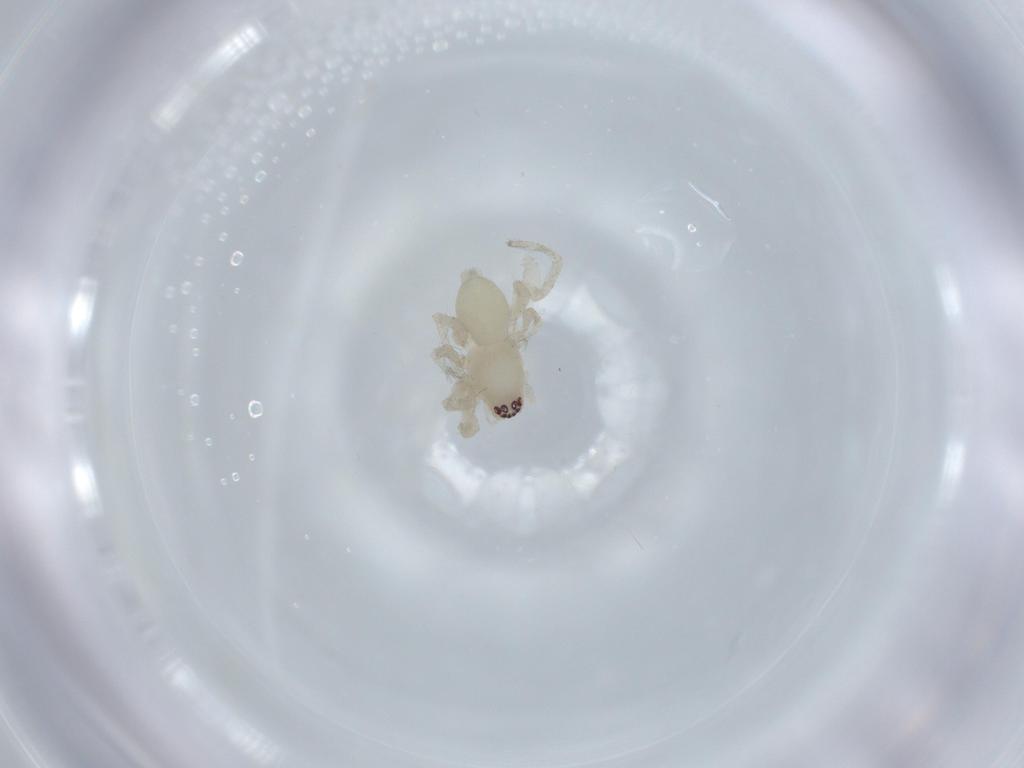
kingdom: Animalia
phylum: Arthropoda
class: Arachnida
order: Araneae
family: Amaurobiidae
